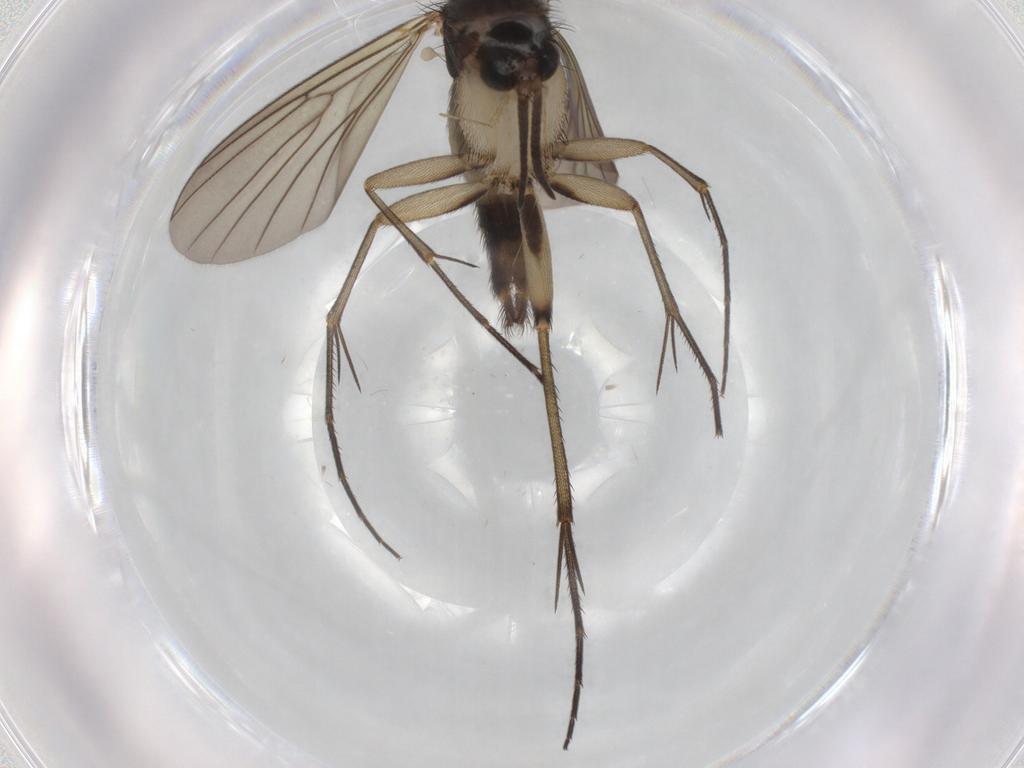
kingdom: Animalia
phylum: Arthropoda
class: Insecta
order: Diptera
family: Mycetophilidae
